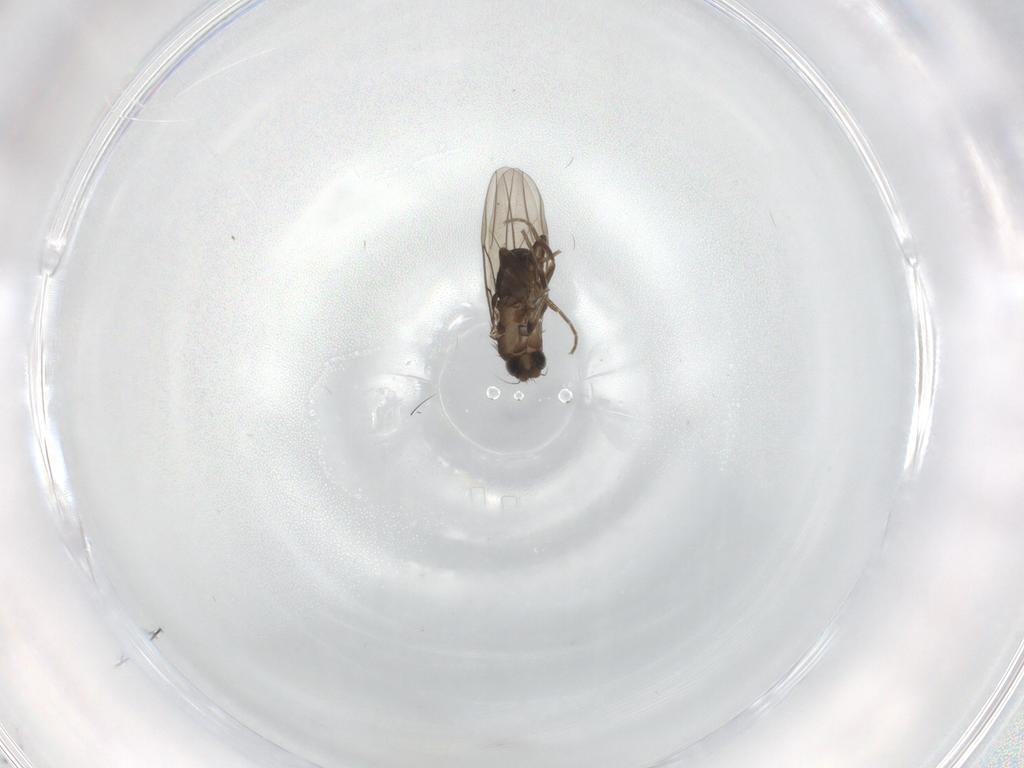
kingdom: Animalia
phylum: Arthropoda
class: Insecta
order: Diptera
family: Phoridae
